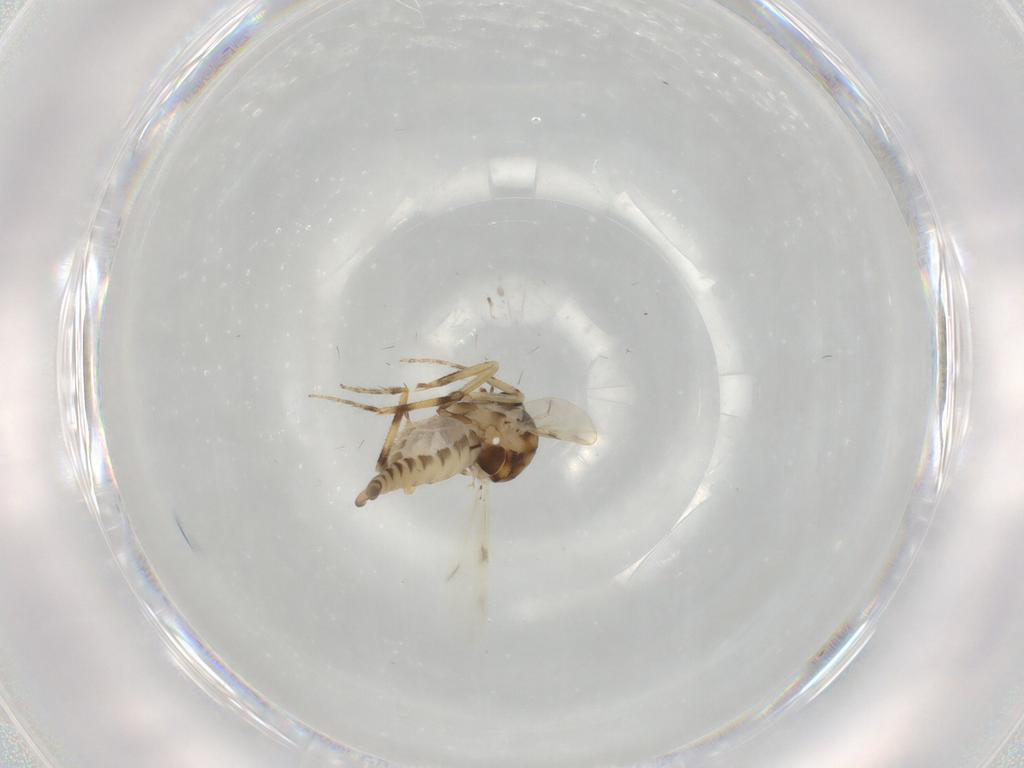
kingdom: Animalia
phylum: Arthropoda
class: Insecta
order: Diptera
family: Ceratopogonidae
